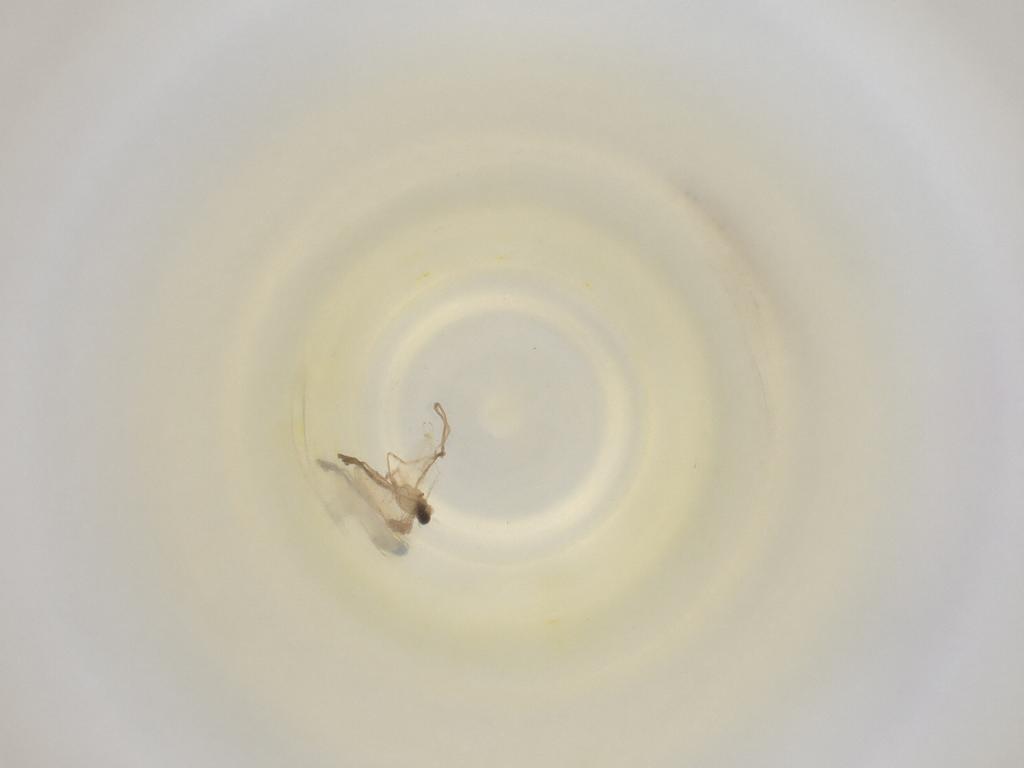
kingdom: Animalia
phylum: Arthropoda
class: Insecta
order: Diptera
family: Cecidomyiidae
